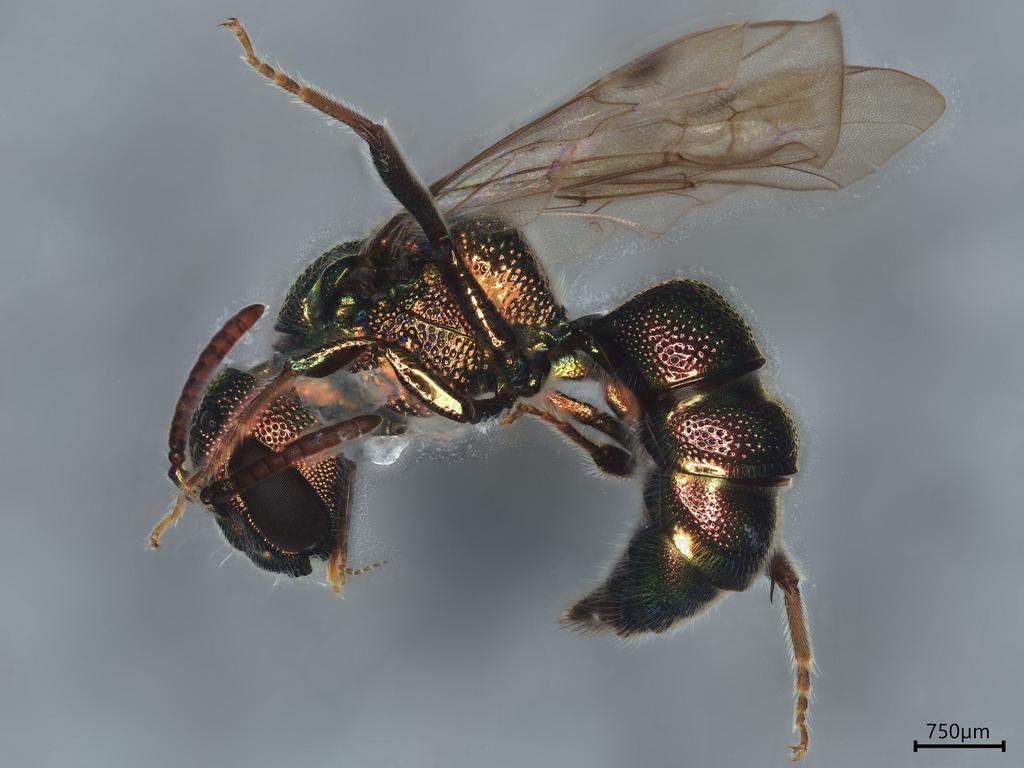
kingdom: Animalia
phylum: Arthropoda
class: Insecta
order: Hymenoptera
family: Halictidae
